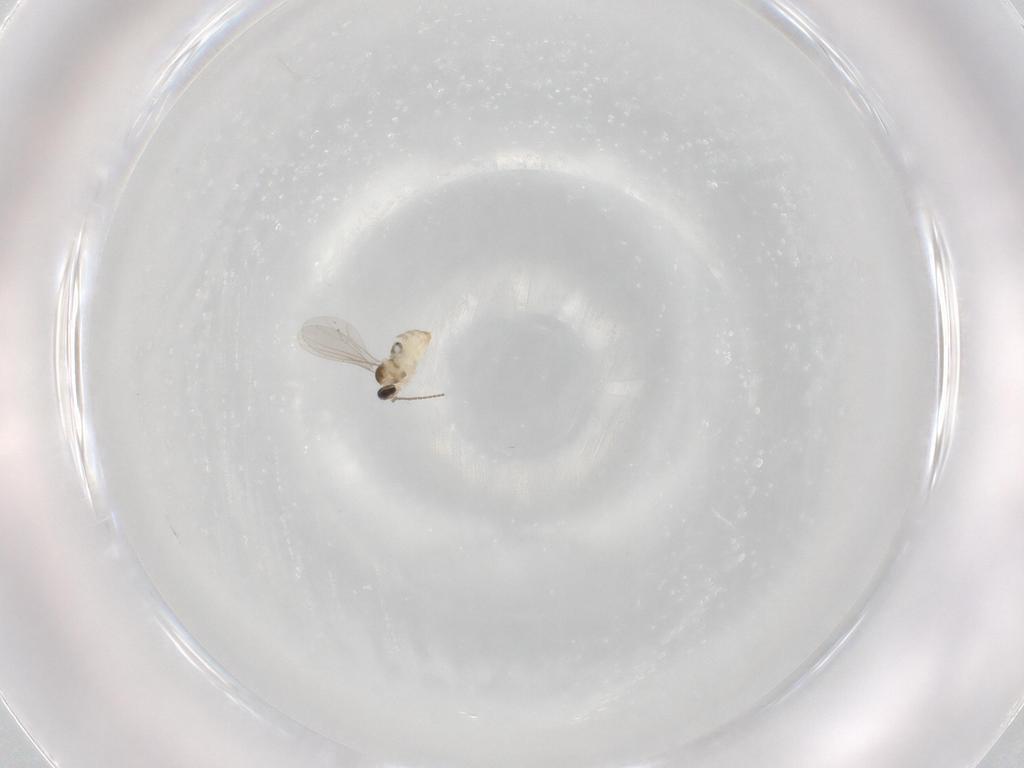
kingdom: Animalia
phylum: Arthropoda
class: Insecta
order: Diptera
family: Cecidomyiidae
